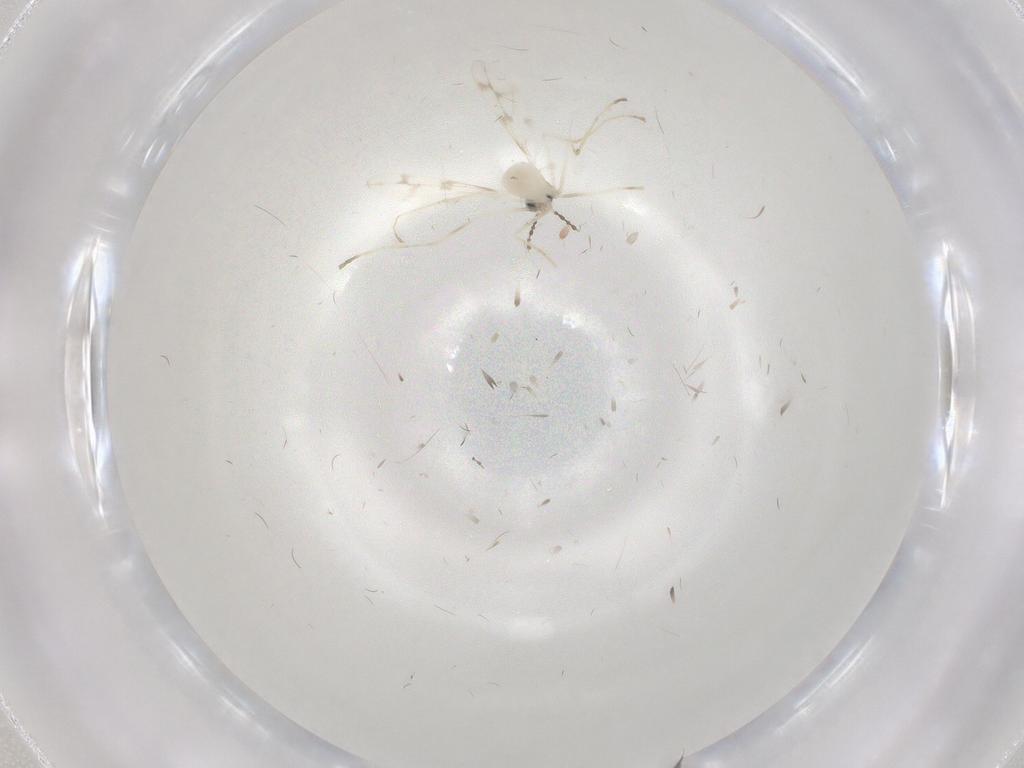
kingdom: Animalia
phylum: Arthropoda
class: Insecta
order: Diptera
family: Cecidomyiidae
